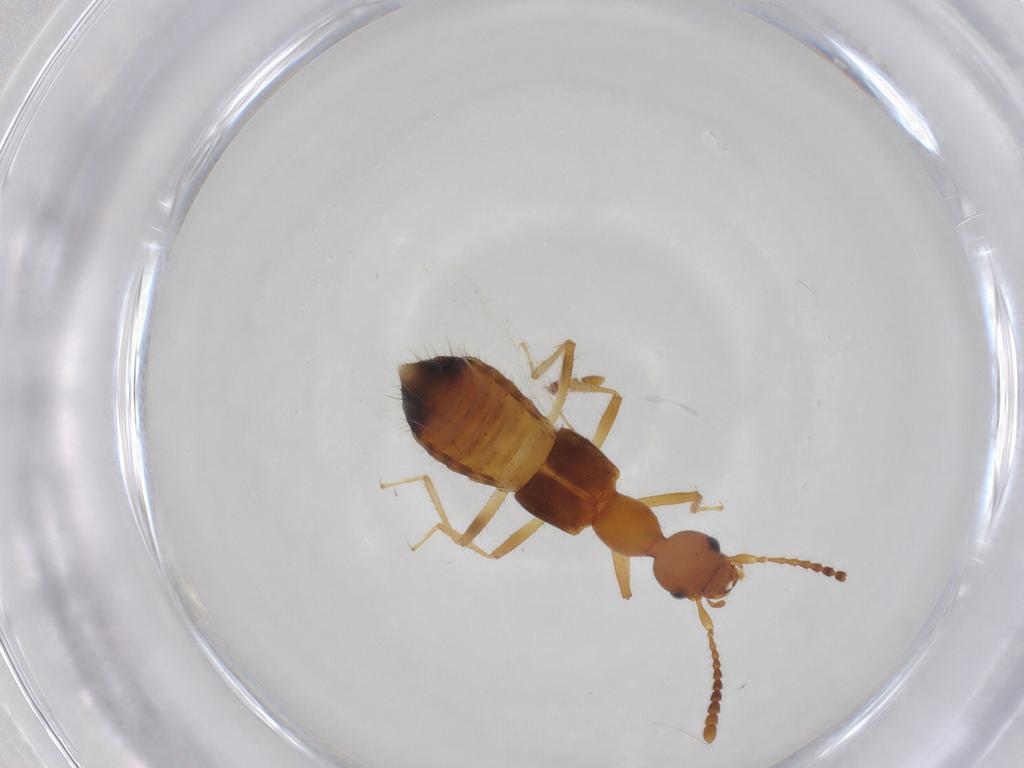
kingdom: Animalia
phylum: Arthropoda
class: Insecta
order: Coleoptera
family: Staphylinidae
